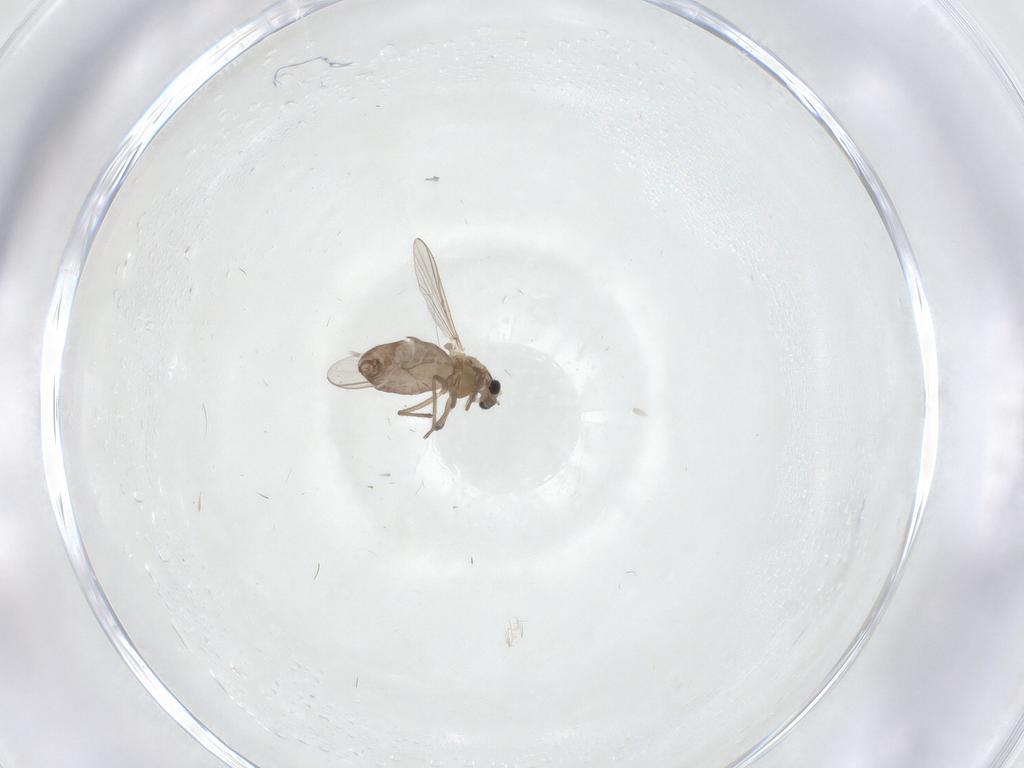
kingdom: Animalia
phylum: Arthropoda
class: Insecta
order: Diptera
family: Chironomidae
